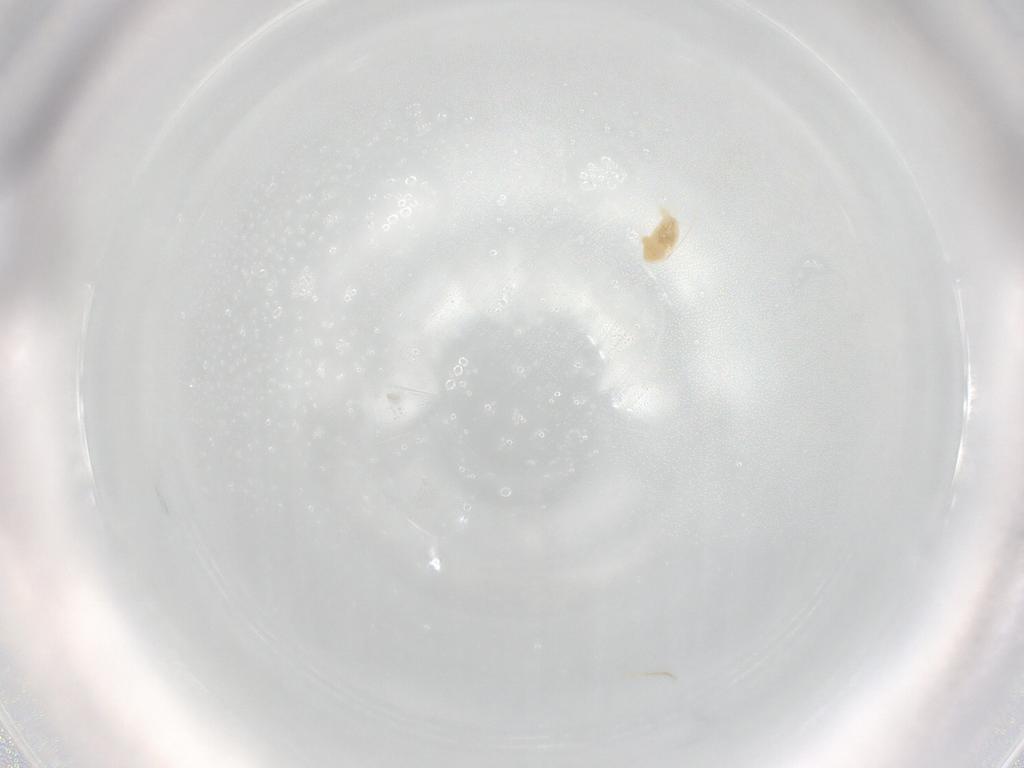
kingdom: Animalia
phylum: Arthropoda
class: Arachnida
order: Trombidiformes
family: Eupodidae
